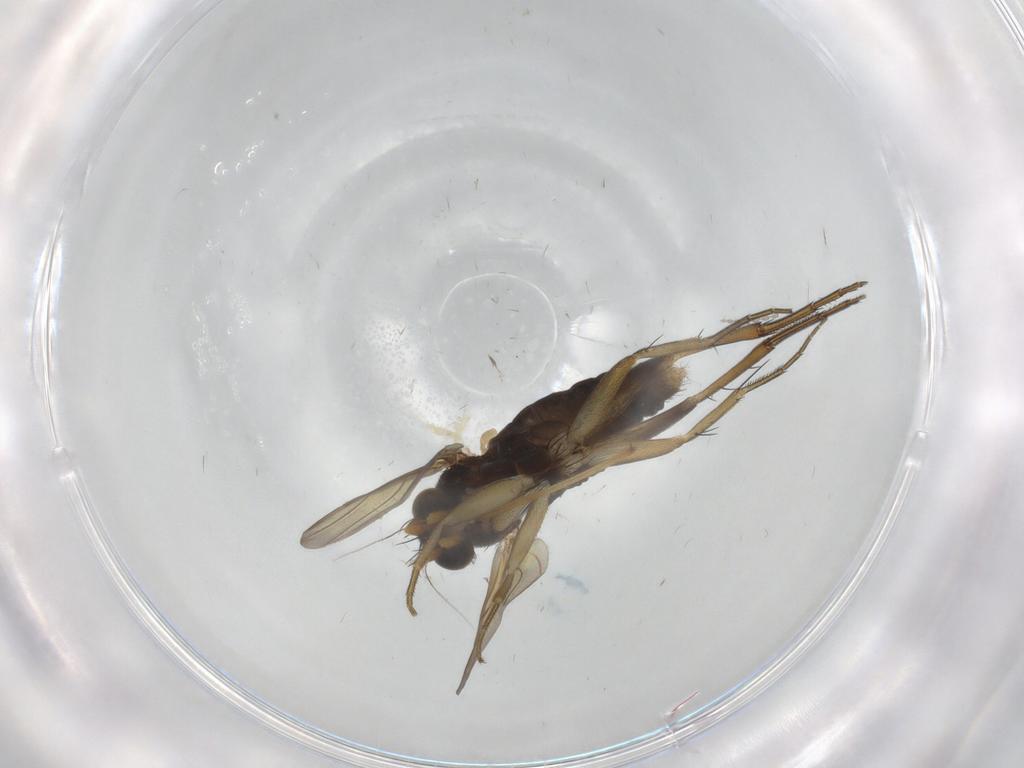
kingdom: Animalia
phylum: Arthropoda
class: Insecta
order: Diptera
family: Phoridae
